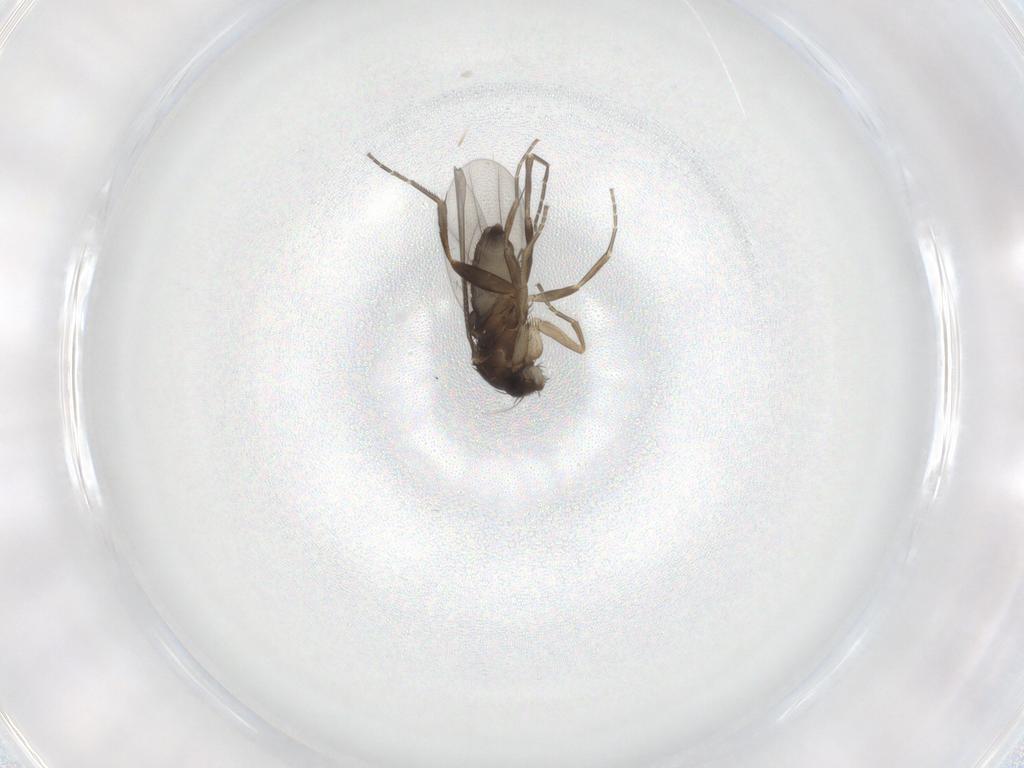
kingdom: Animalia
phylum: Arthropoda
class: Insecta
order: Diptera
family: Phoridae
